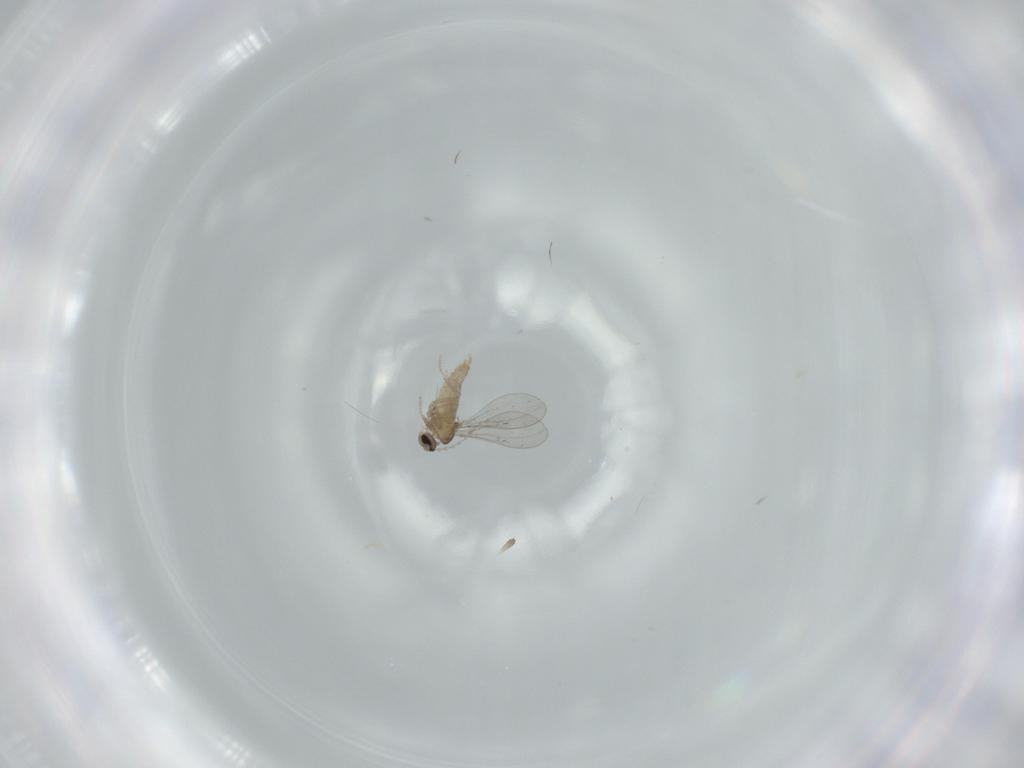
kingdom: Animalia
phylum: Arthropoda
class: Insecta
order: Diptera
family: Cecidomyiidae
